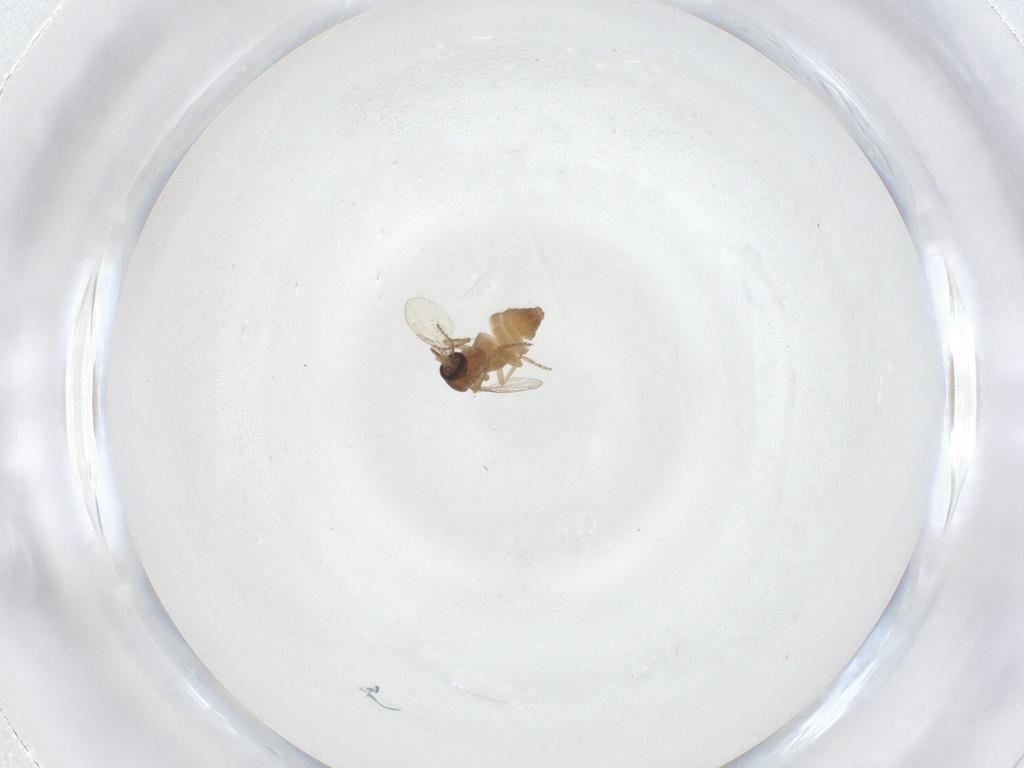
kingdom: Animalia
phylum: Arthropoda
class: Insecta
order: Diptera
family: Ceratopogonidae
